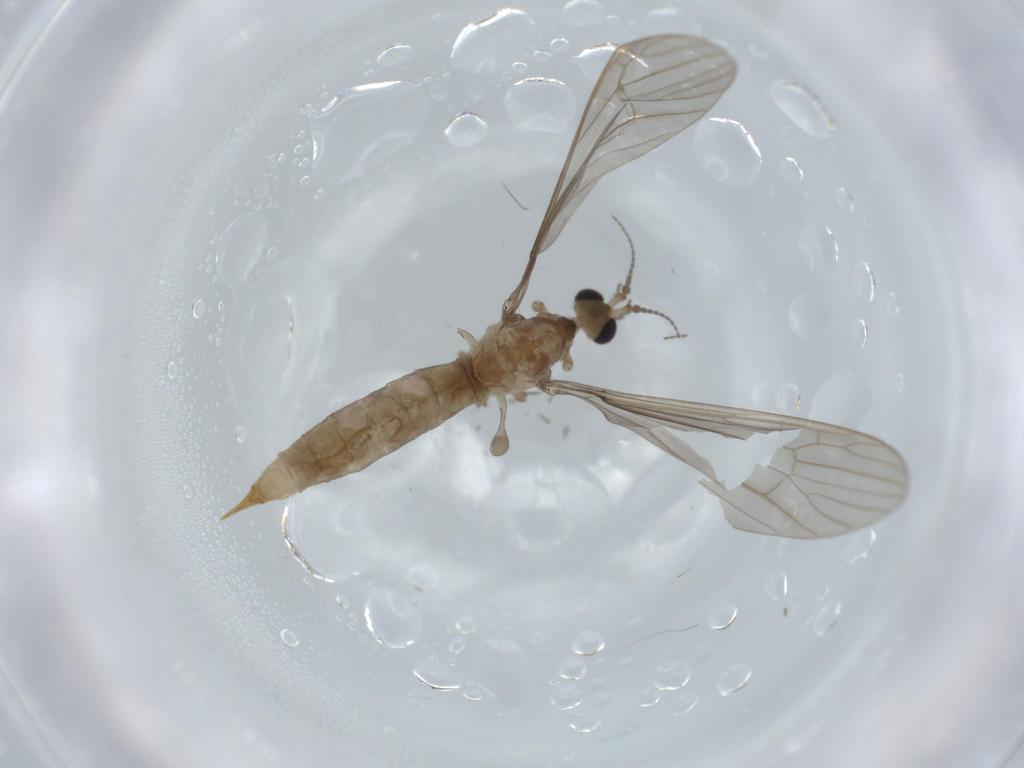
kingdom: Animalia
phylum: Arthropoda
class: Insecta
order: Diptera
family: Limoniidae
